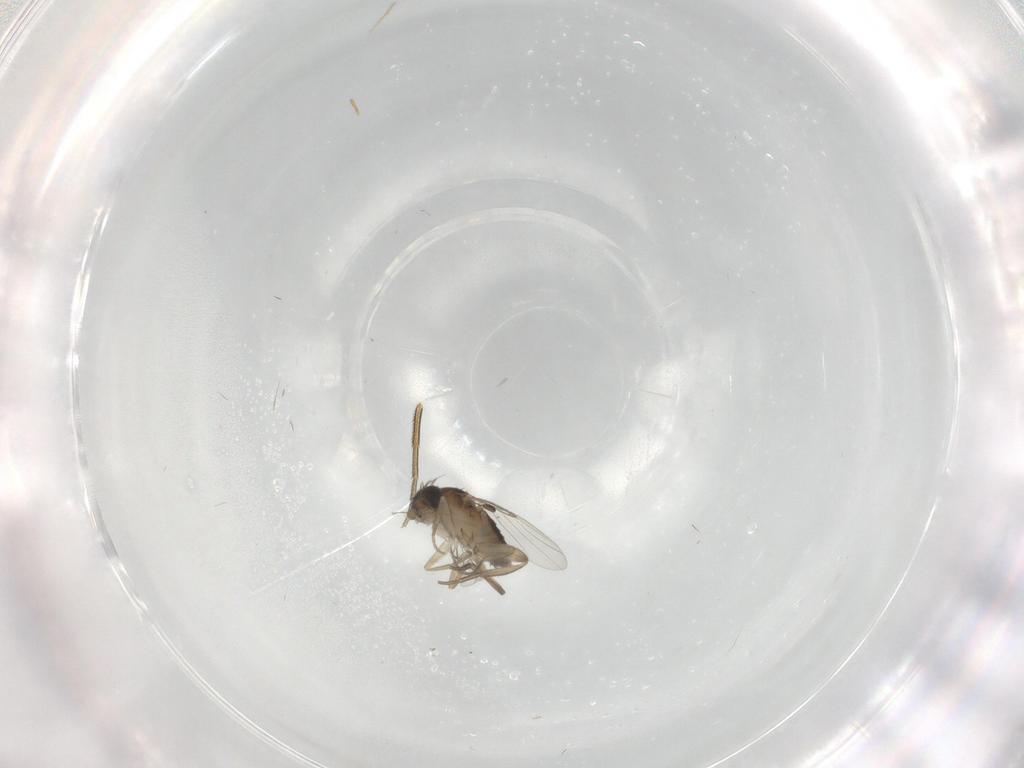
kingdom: Animalia
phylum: Arthropoda
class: Insecta
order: Diptera
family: Phoridae
